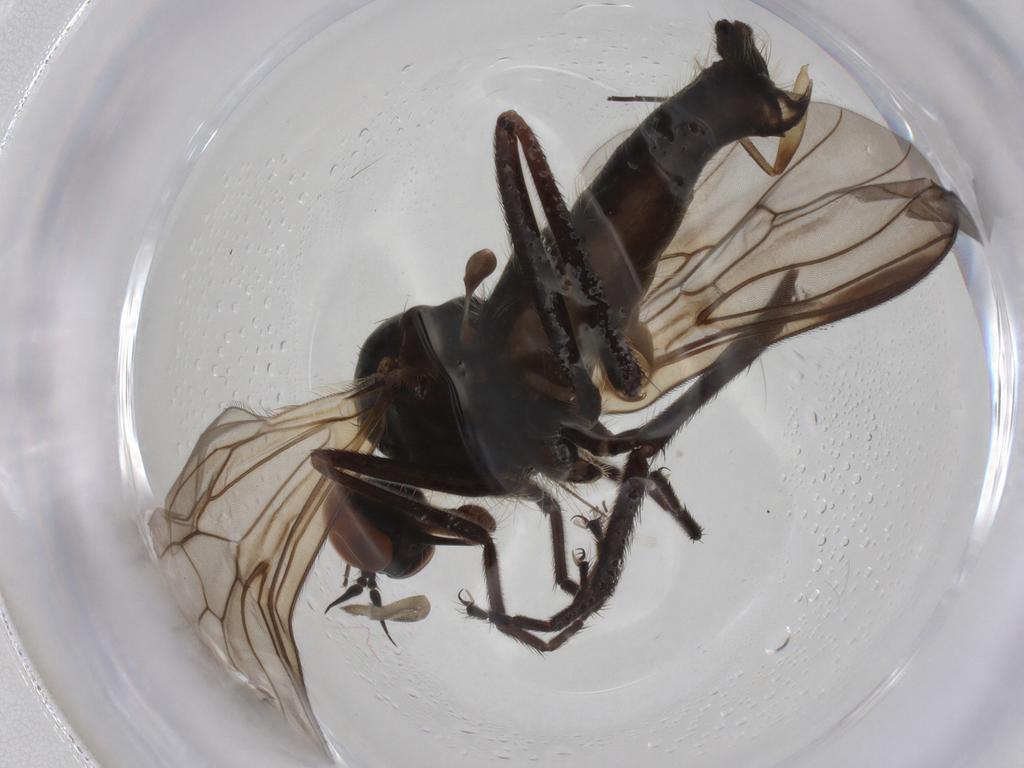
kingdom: Animalia
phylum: Arthropoda
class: Insecta
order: Diptera
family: Empididae
